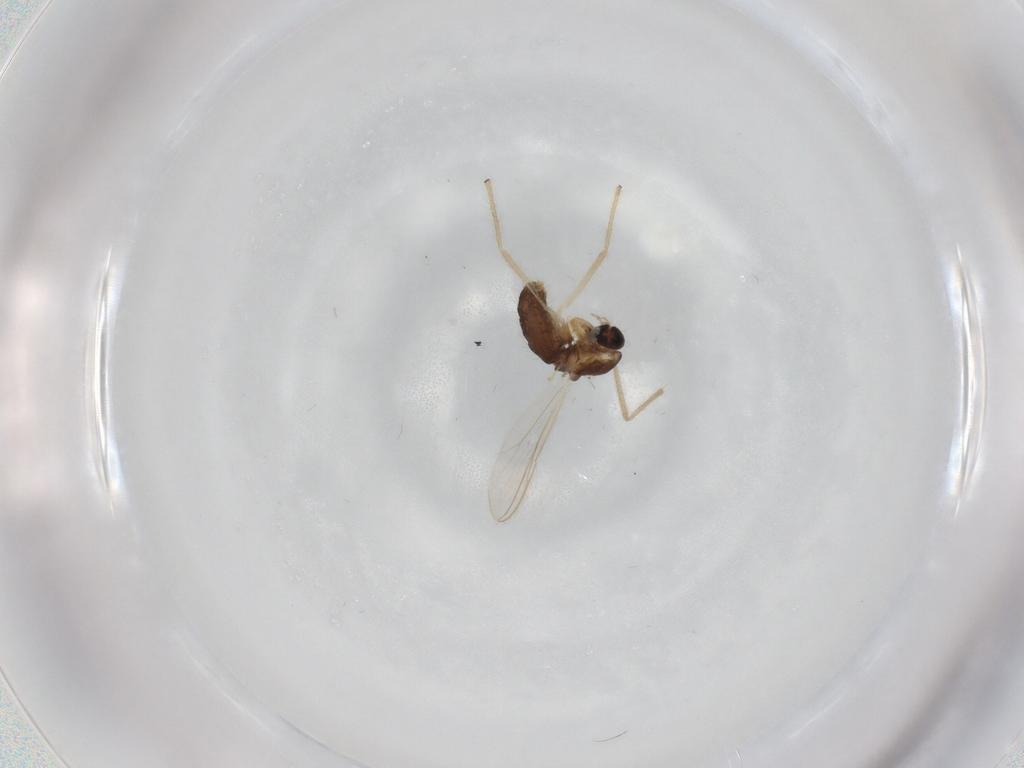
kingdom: Animalia
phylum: Arthropoda
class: Insecta
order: Diptera
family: Chironomidae
